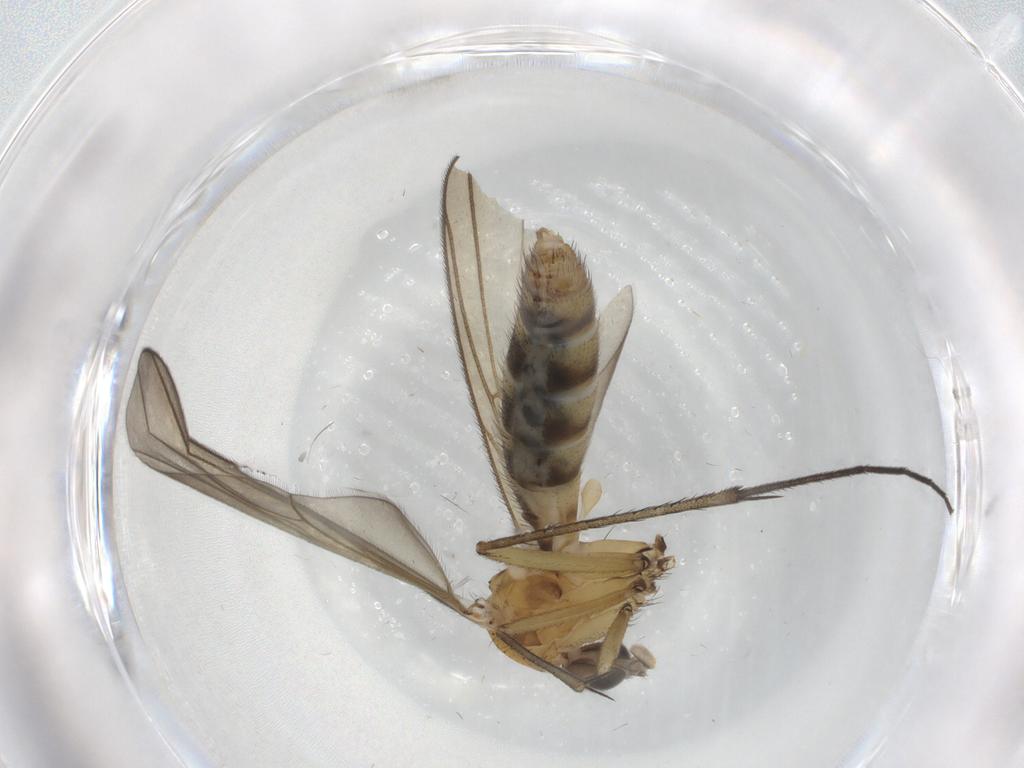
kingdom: Animalia
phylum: Arthropoda
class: Insecta
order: Diptera
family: Mycetophilidae
